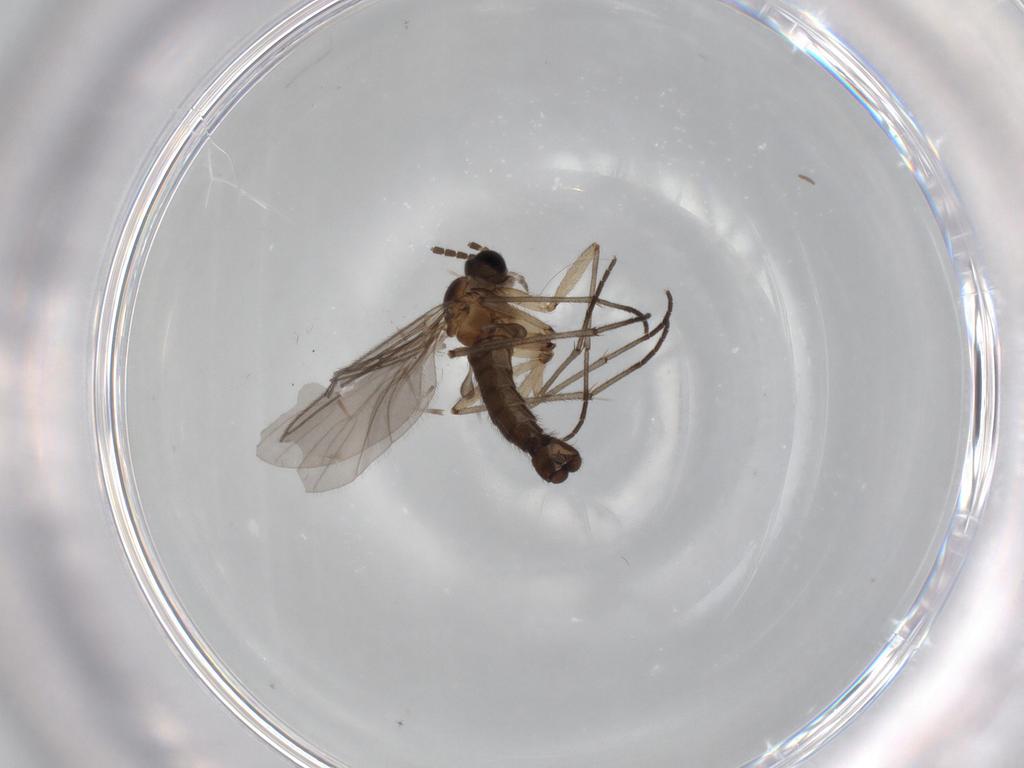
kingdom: Animalia
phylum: Arthropoda
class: Insecta
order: Diptera
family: Sciaridae
